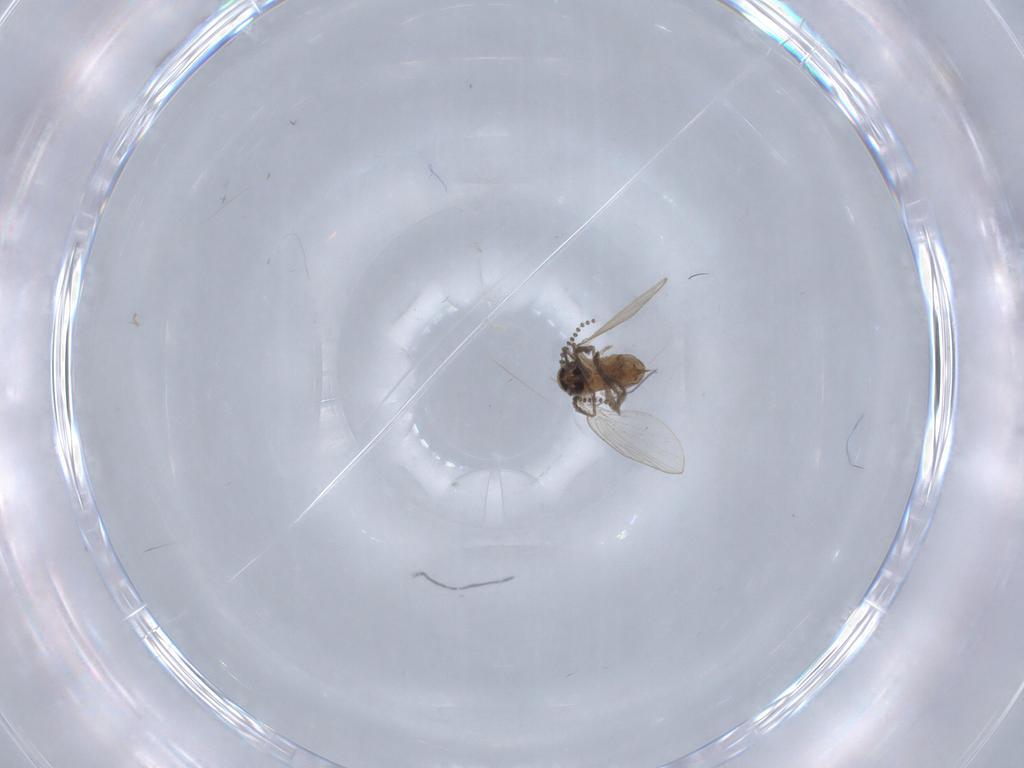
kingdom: Animalia
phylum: Arthropoda
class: Insecta
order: Diptera
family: Psychodidae
